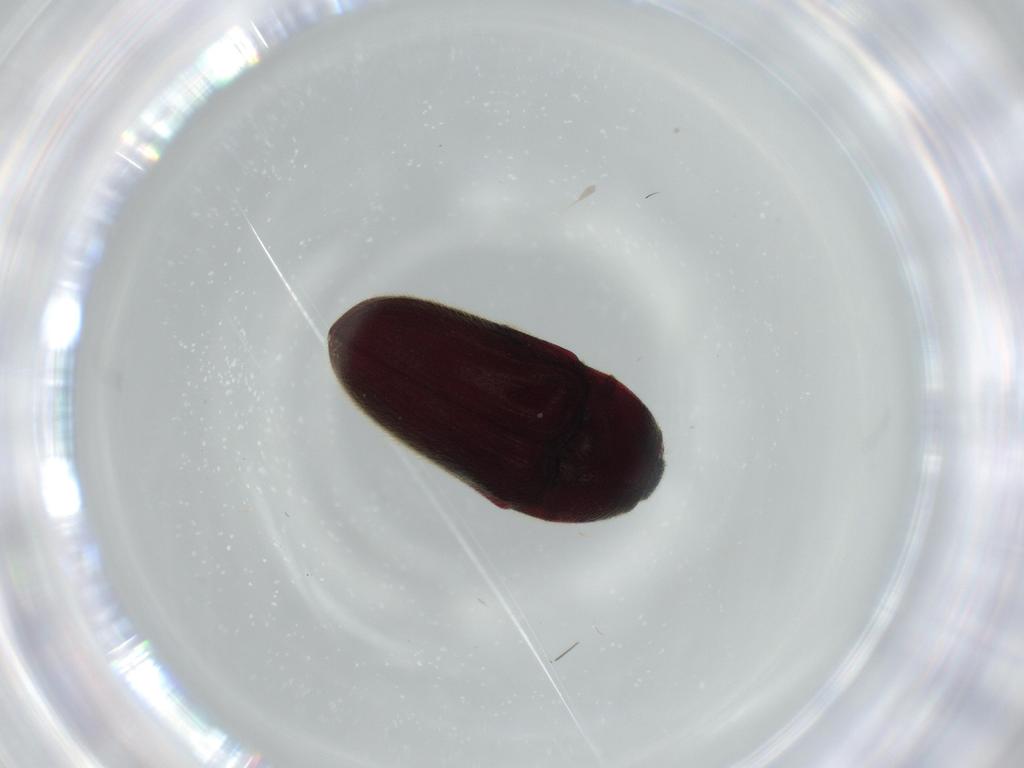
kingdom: Animalia
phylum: Arthropoda
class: Insecta
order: Coleoptera
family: Throscidae
